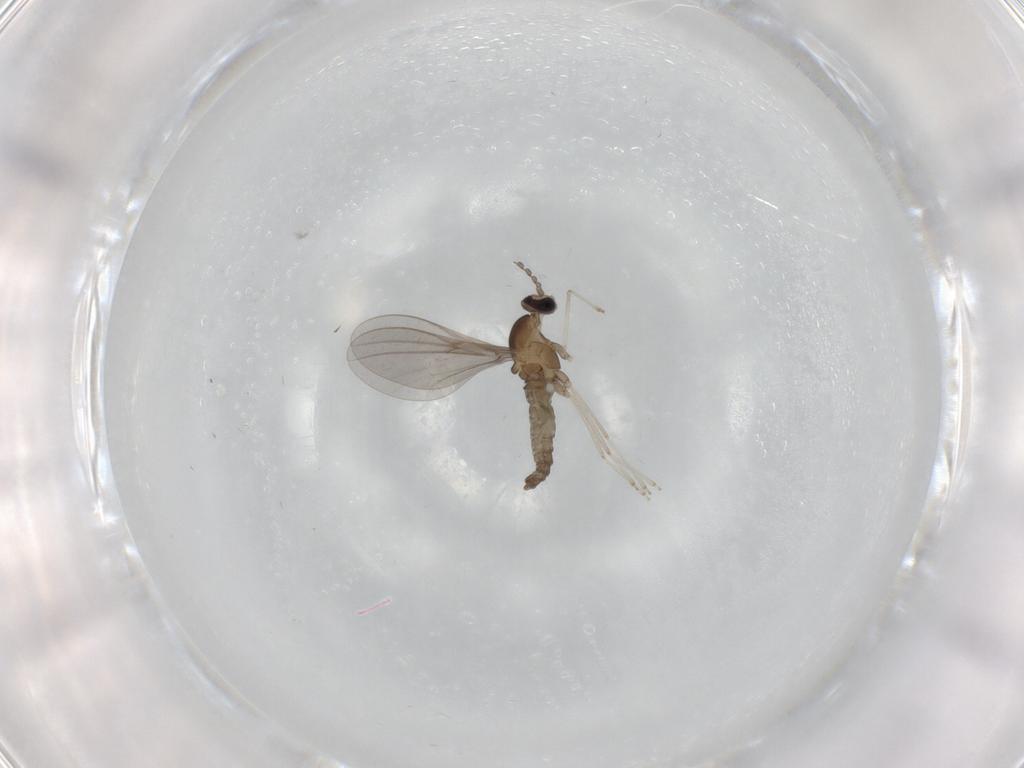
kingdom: Animalia
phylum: Arthropoda
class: Insecta
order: Diptera
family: Cecidomyiidae
